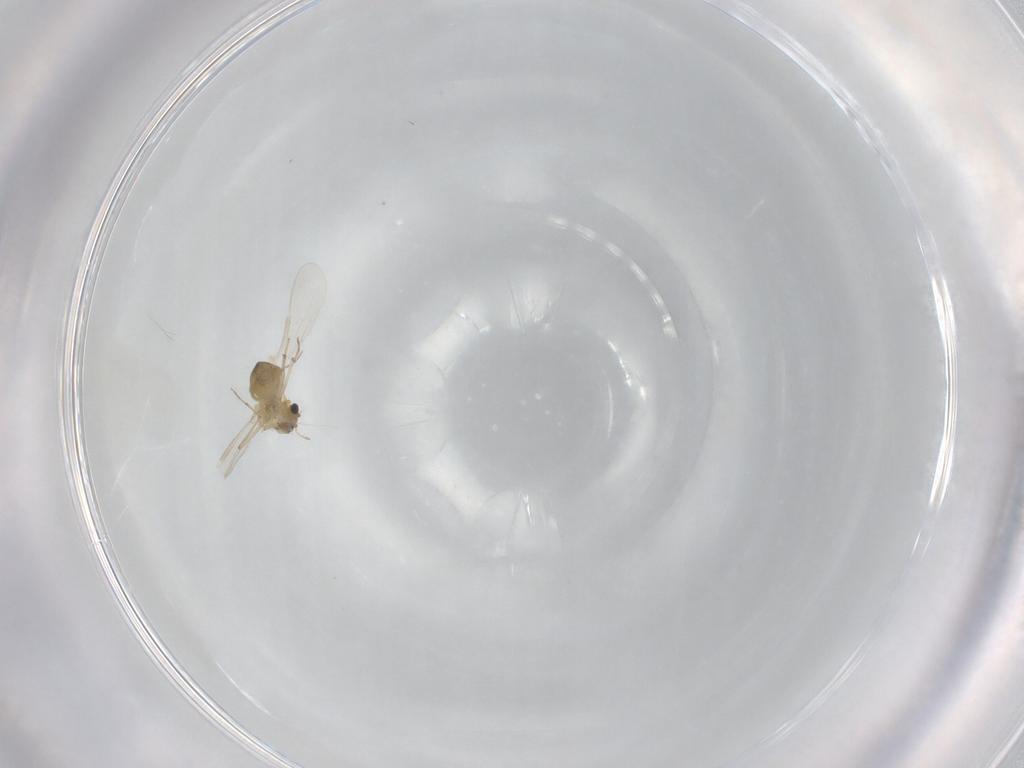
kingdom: Animalia
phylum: Arthropoda
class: Insecta
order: Diptera
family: Chironomidae
